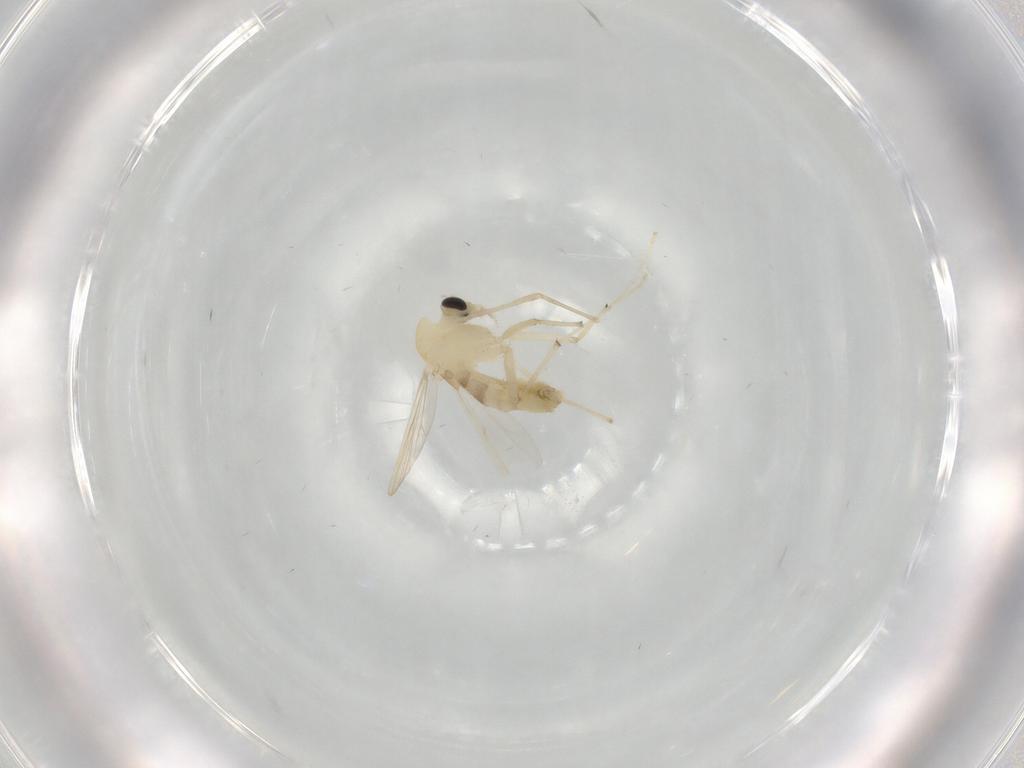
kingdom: Animalia
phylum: Arthropoda
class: Insecta
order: Diptera
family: Chironomidae
